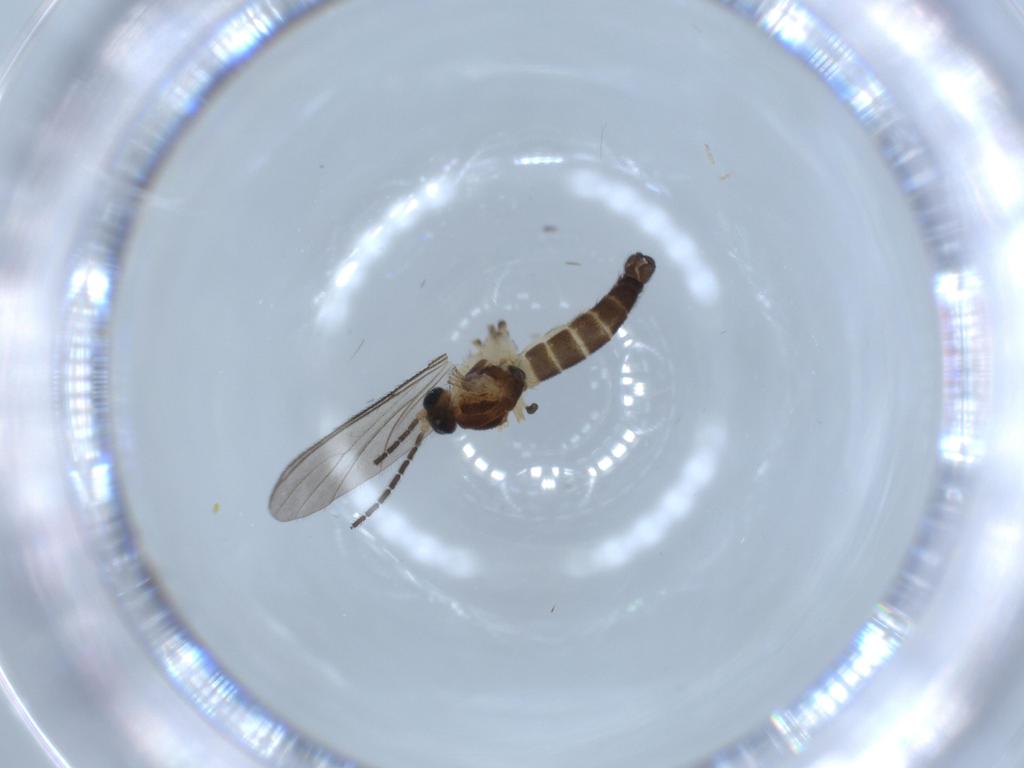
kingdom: Animalia
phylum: Arthropoda
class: Insecta
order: Diptera
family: Sciaridae
